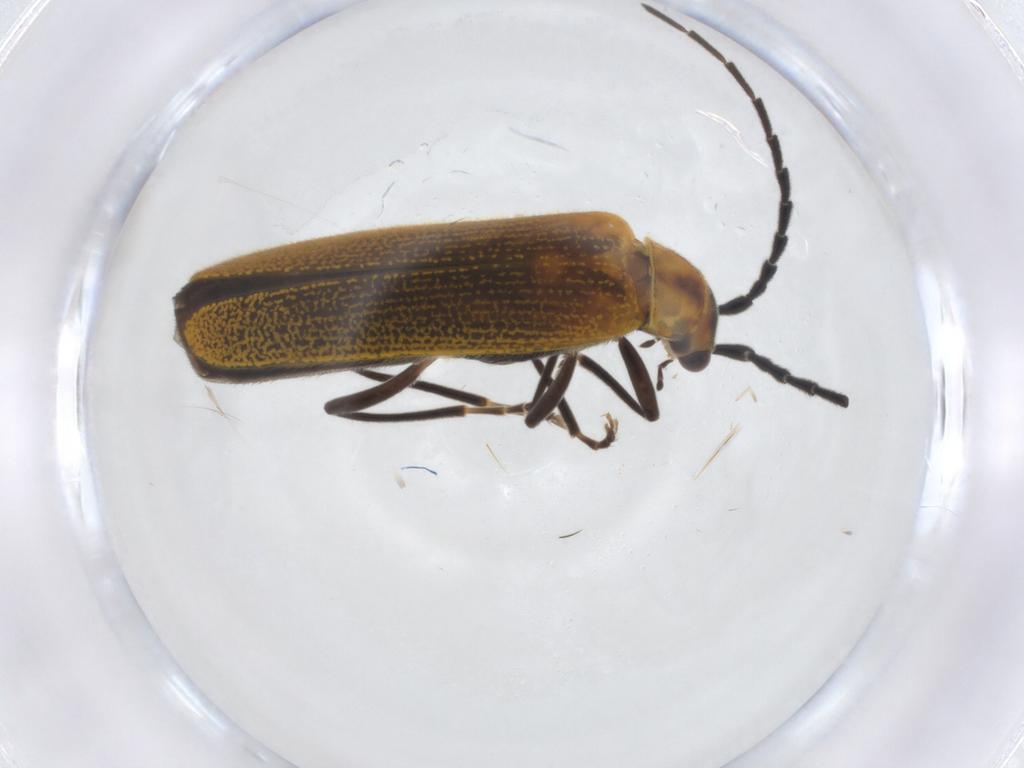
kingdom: Animalia
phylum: Arthropoda
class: Insecta
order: Coleoptera
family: Cantharidae
